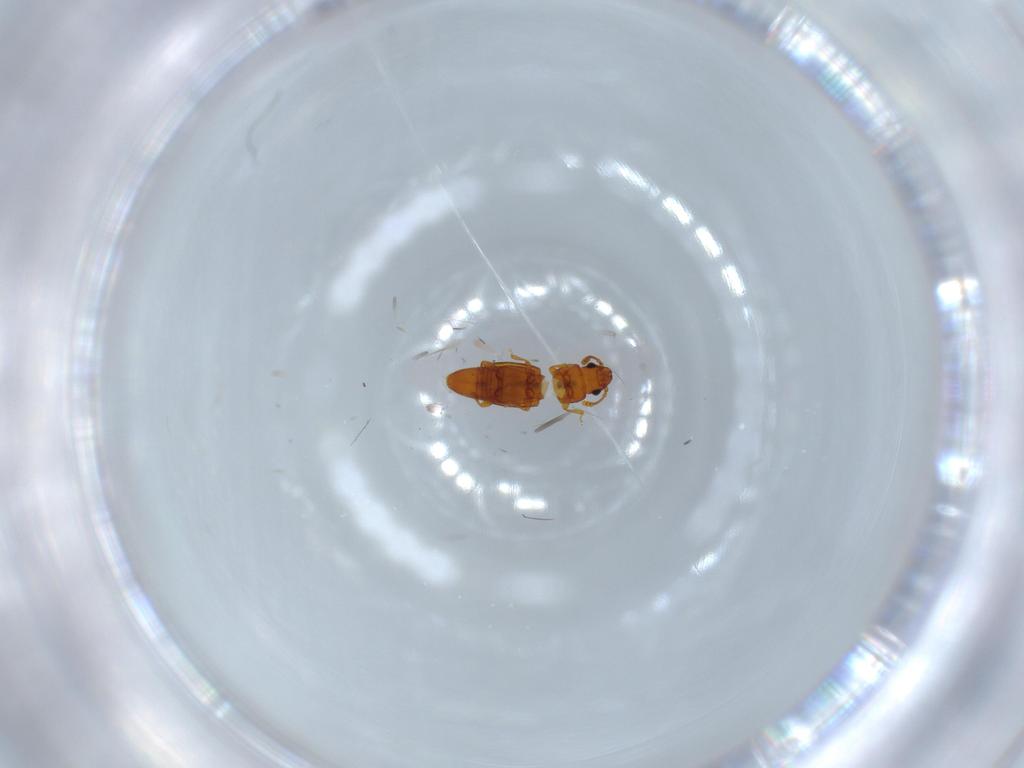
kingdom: Animalia
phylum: Arthropoda
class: Insecta
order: Coleoptera
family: Smicripidae
